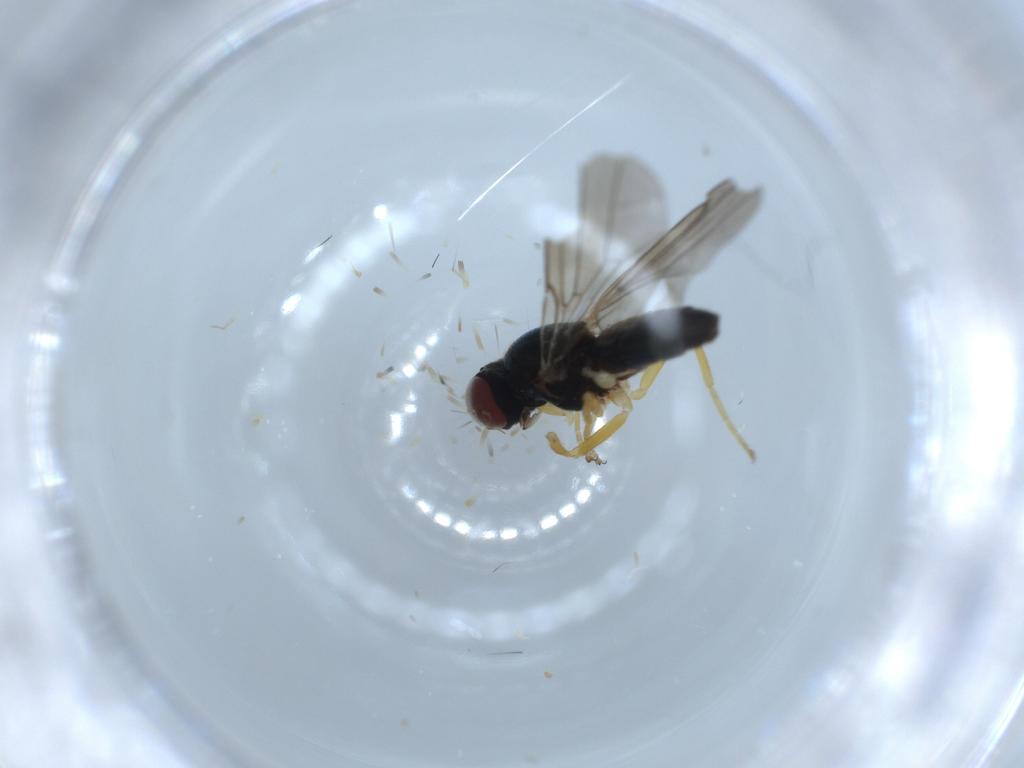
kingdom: Animalia
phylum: Arthropoda
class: Insecta
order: Diptera
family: Chloropidae
